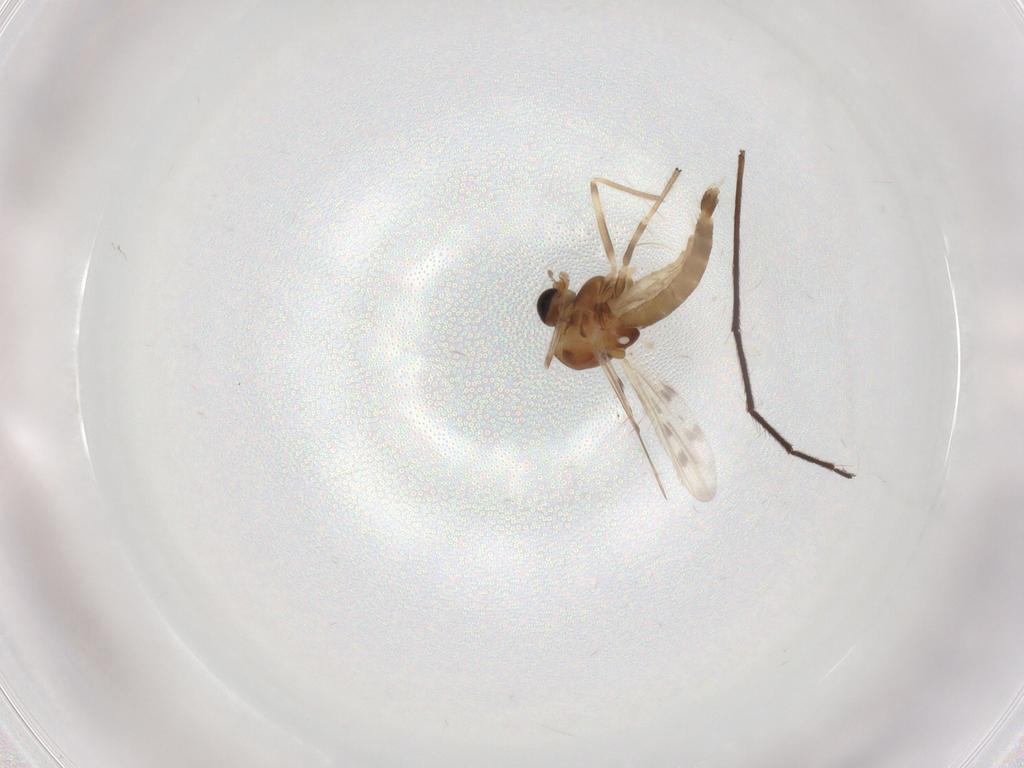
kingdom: Animalia
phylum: Arthropoda
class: Insecta
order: Diptera
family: Chironomidae
